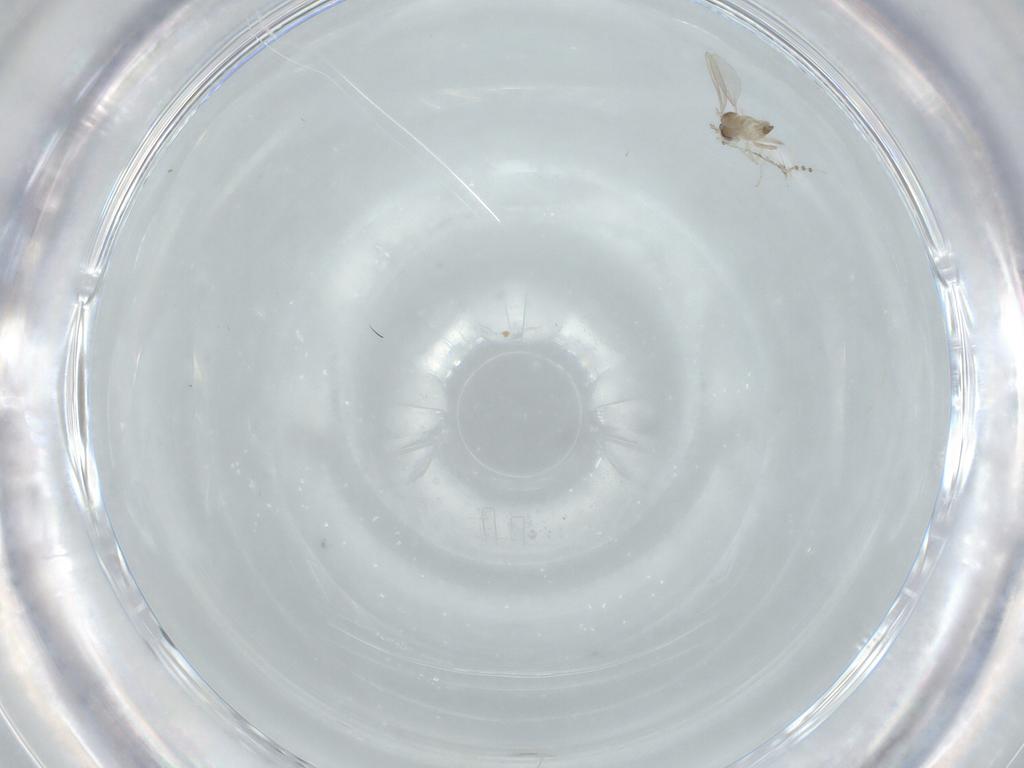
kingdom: Animalia
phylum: Arthropoda
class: Insecta
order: Diptera
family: Cecidomyiidae
